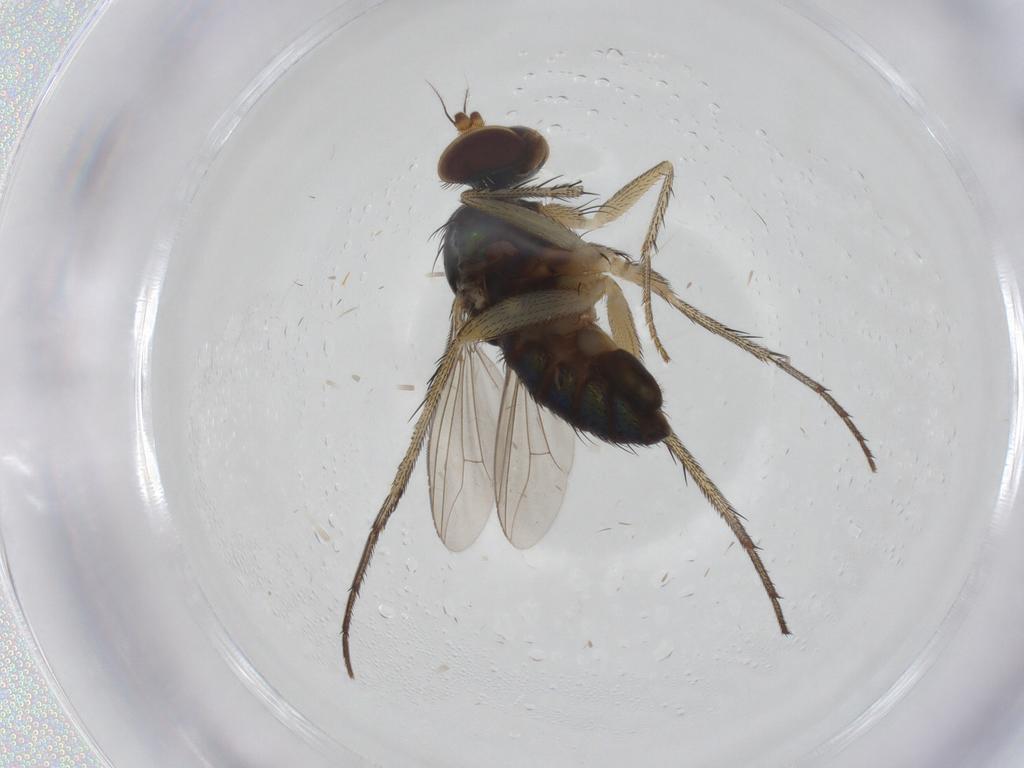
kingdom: Animalia
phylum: Arthropoda
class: Insecta
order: Diptera
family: Dolichopodidae
